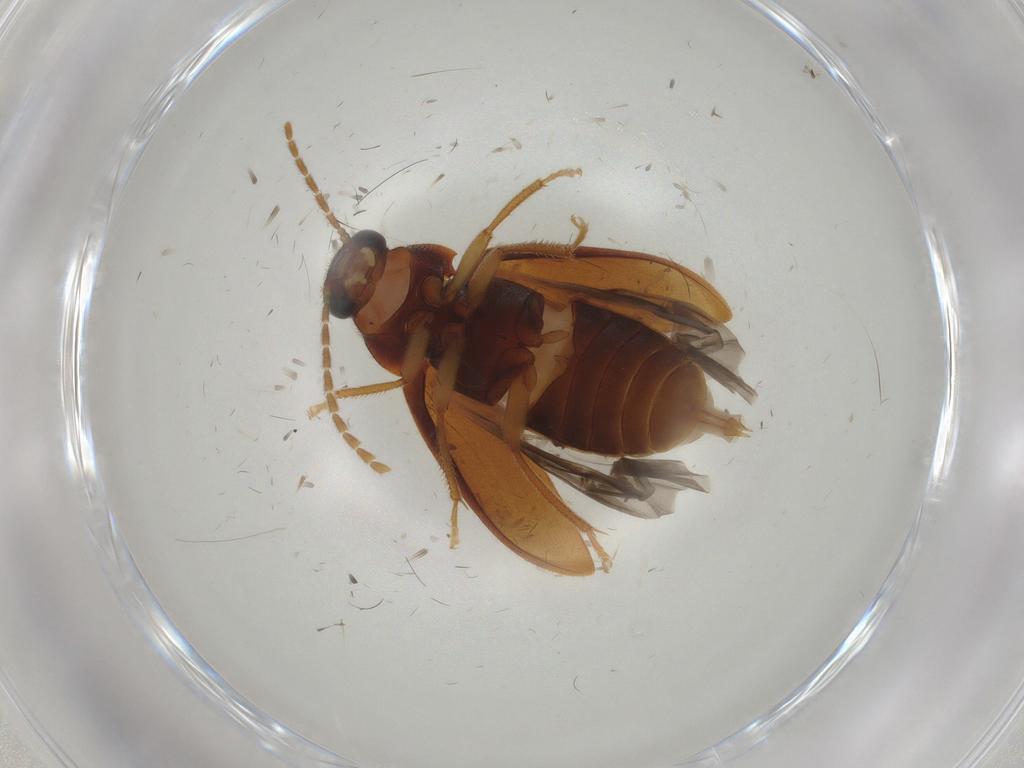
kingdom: Animalia
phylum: Arthropoda
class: Insecta
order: Coleoptera
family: Ptilodactylidae
